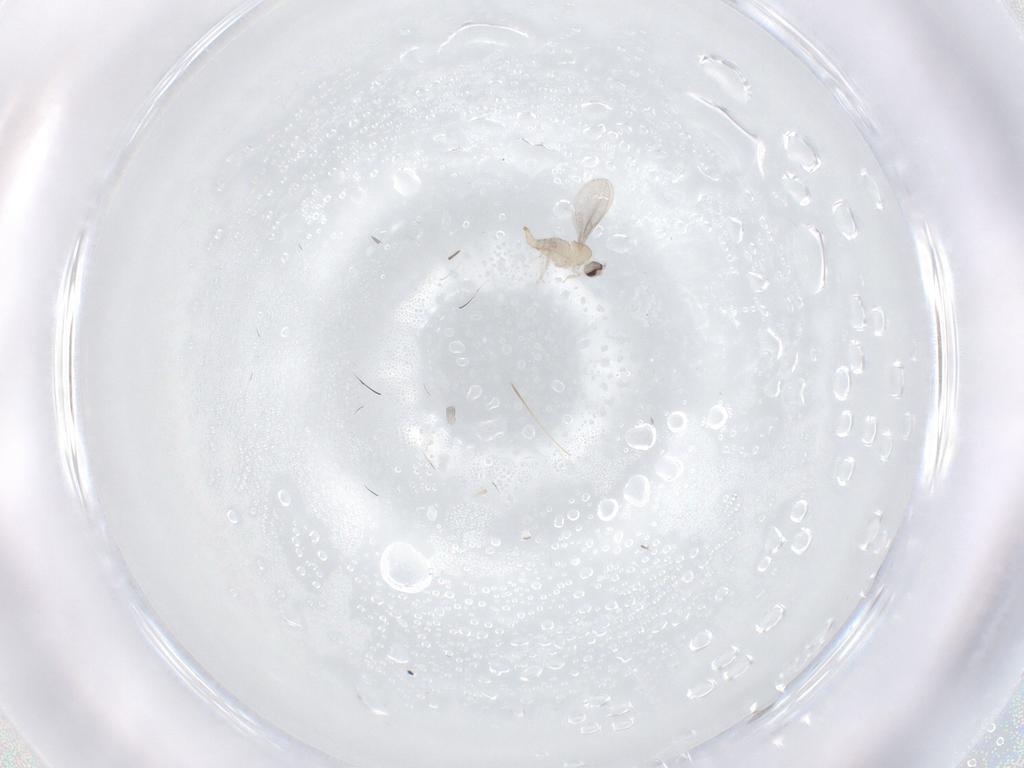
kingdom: Animalia
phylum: Arthropoda
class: Insecta
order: Diptera
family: Cecidomyiidae
